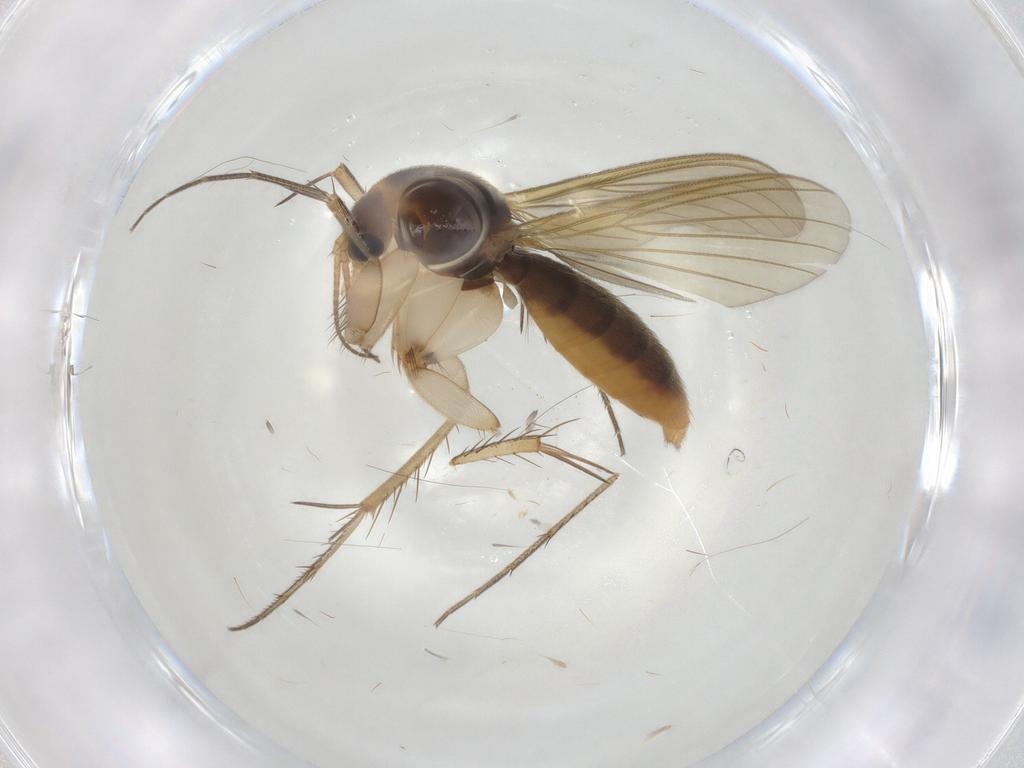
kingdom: Animalia
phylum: Arthropoda
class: Insecta
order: Diptera
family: Mycetophilidae
